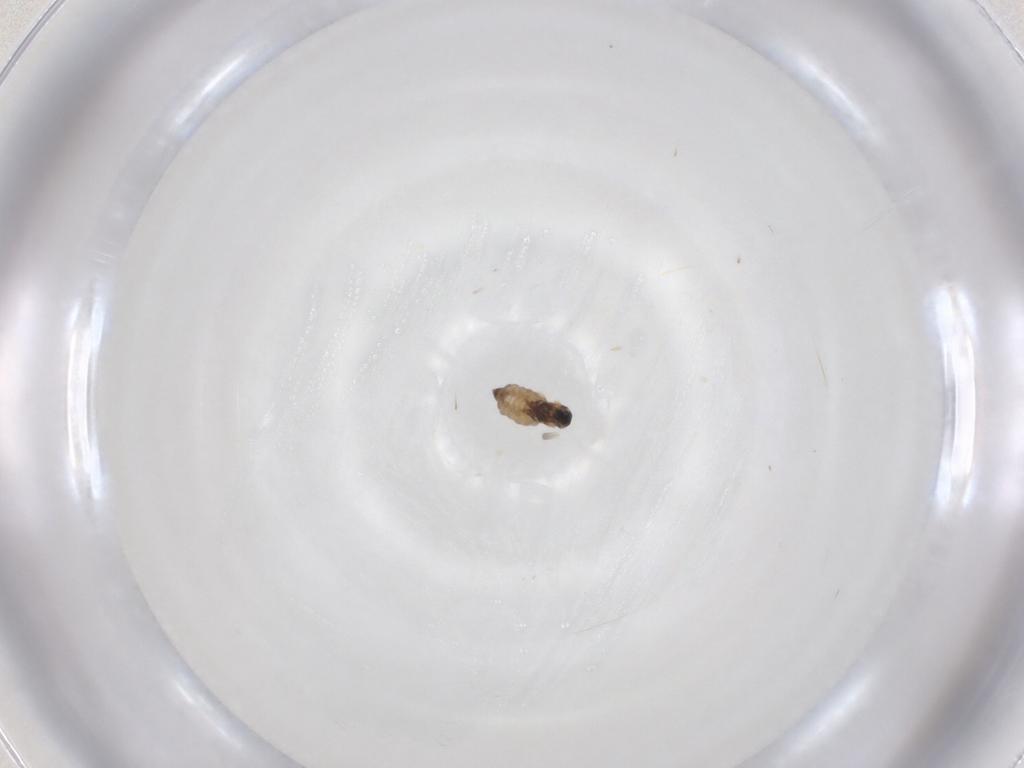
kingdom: Animalia
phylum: Arthropoda
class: Insecta
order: Diptera
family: Cecidomyiidae
